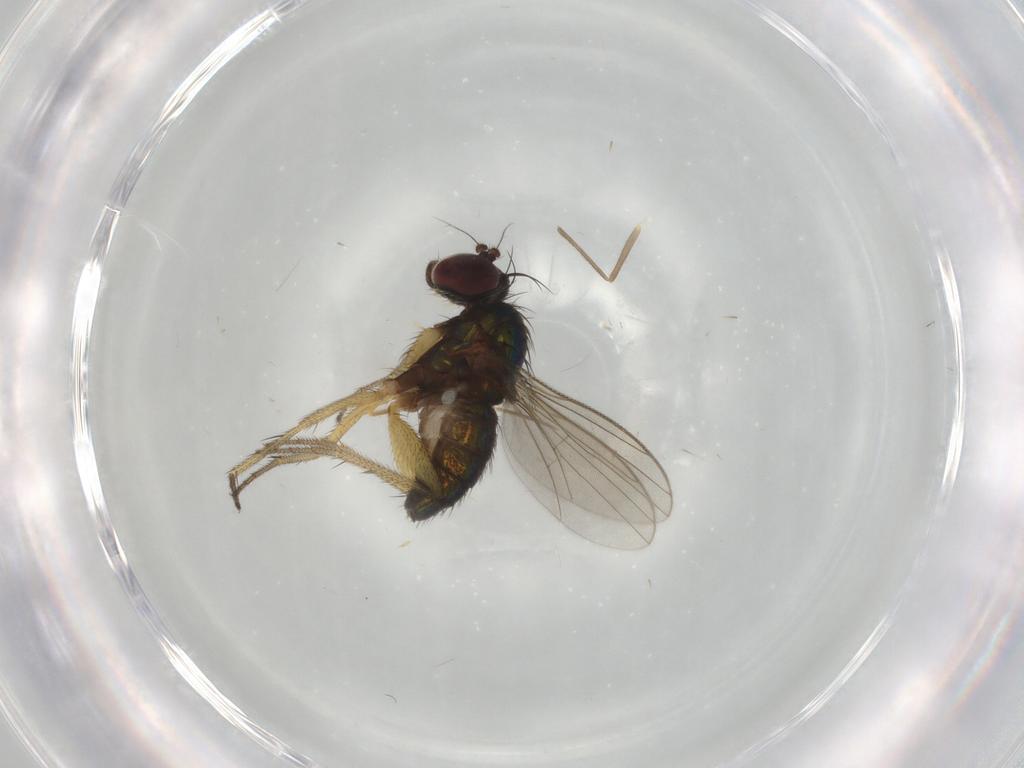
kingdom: Animalia
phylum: Arthropoda
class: Insecta
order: Diptera
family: Dolichopodidae
